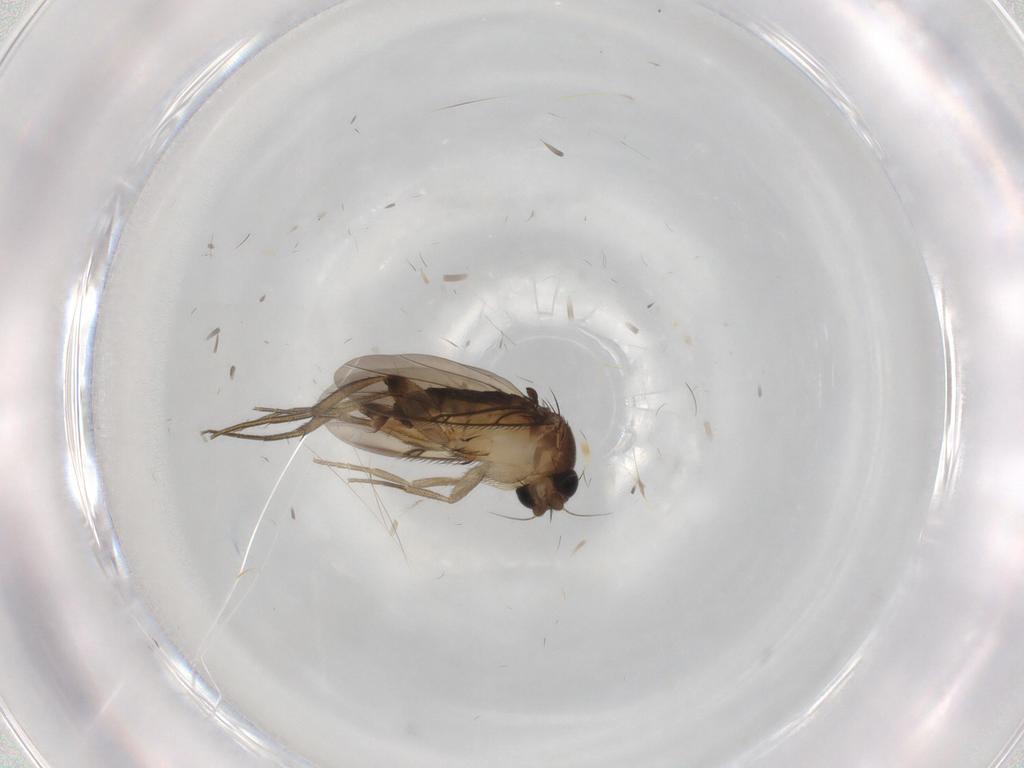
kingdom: Animalia
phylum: Arthropoda
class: Insecta
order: Diptera
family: Cecidomyiidae
